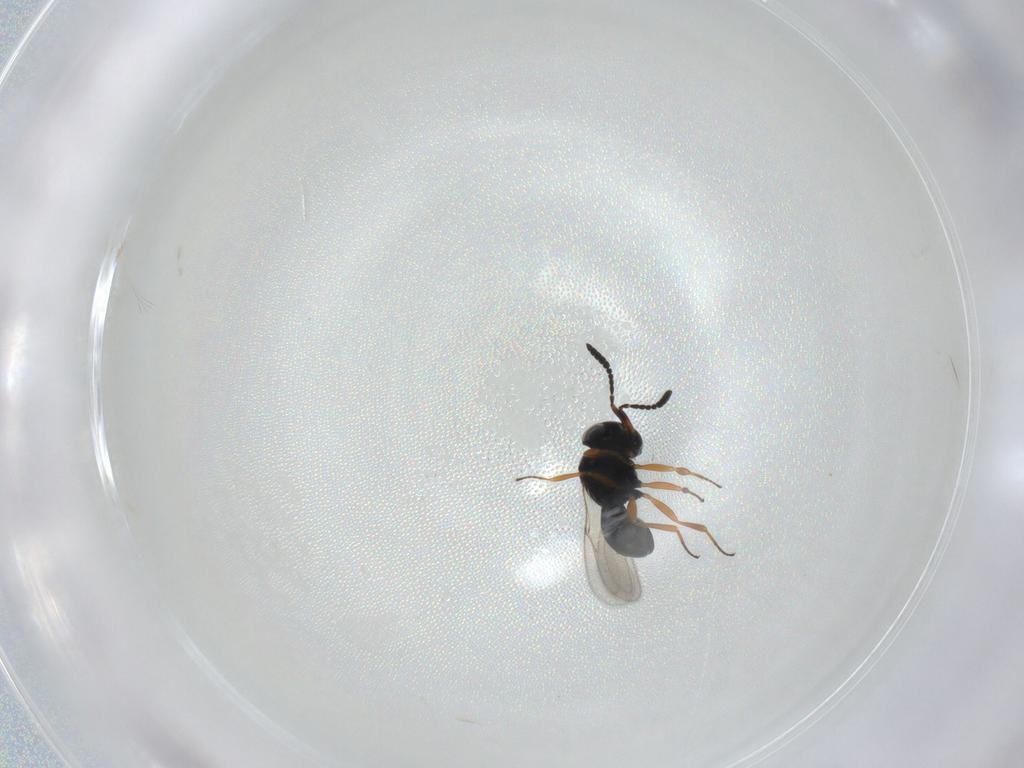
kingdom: Animalia
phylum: Arthropoda
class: Insecta
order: Hymenoptera
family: Scelionidae
